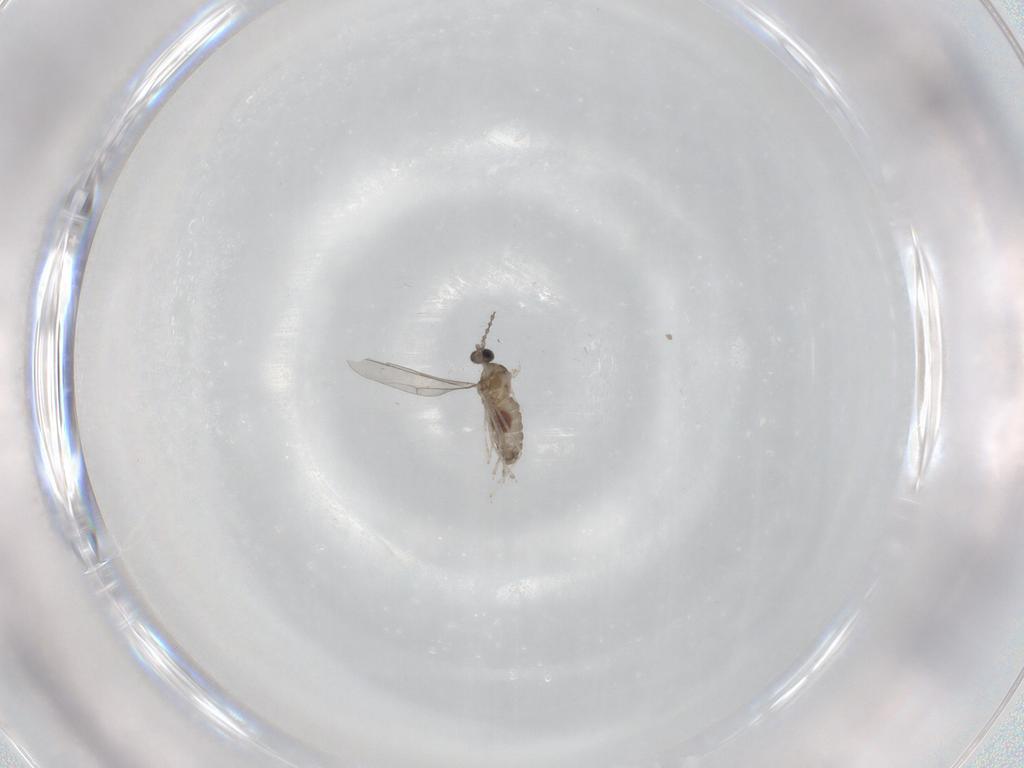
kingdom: Animalia
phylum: Arthropoda
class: Insecta
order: Diptera
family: Cecidomyiidae
